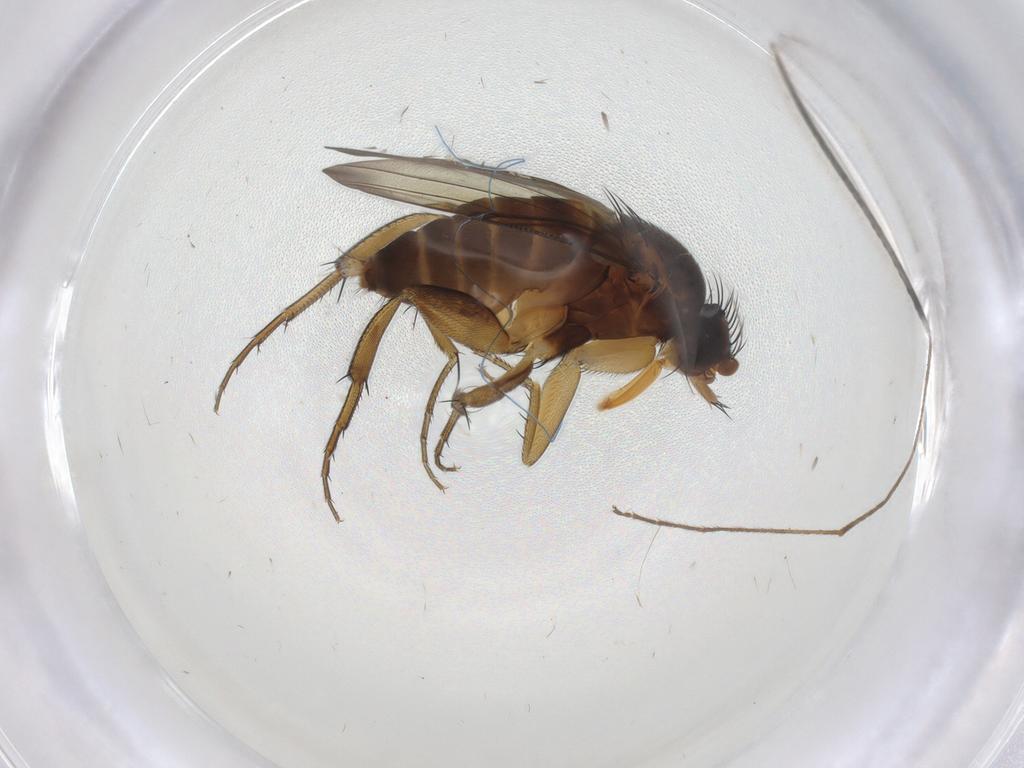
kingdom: Animalia
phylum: Arthropoda
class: Insecta
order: Diptera
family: Phoridae
